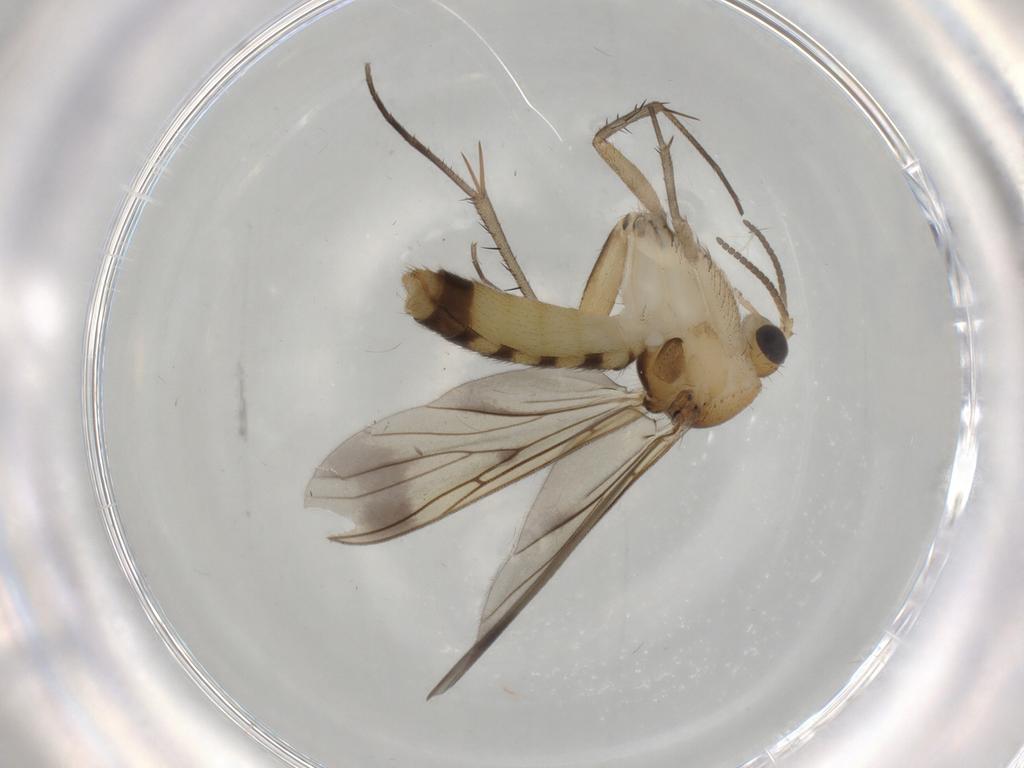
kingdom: Animalia
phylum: Arthropoda
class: Insecta
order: Diptera
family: Mycetophilidae
